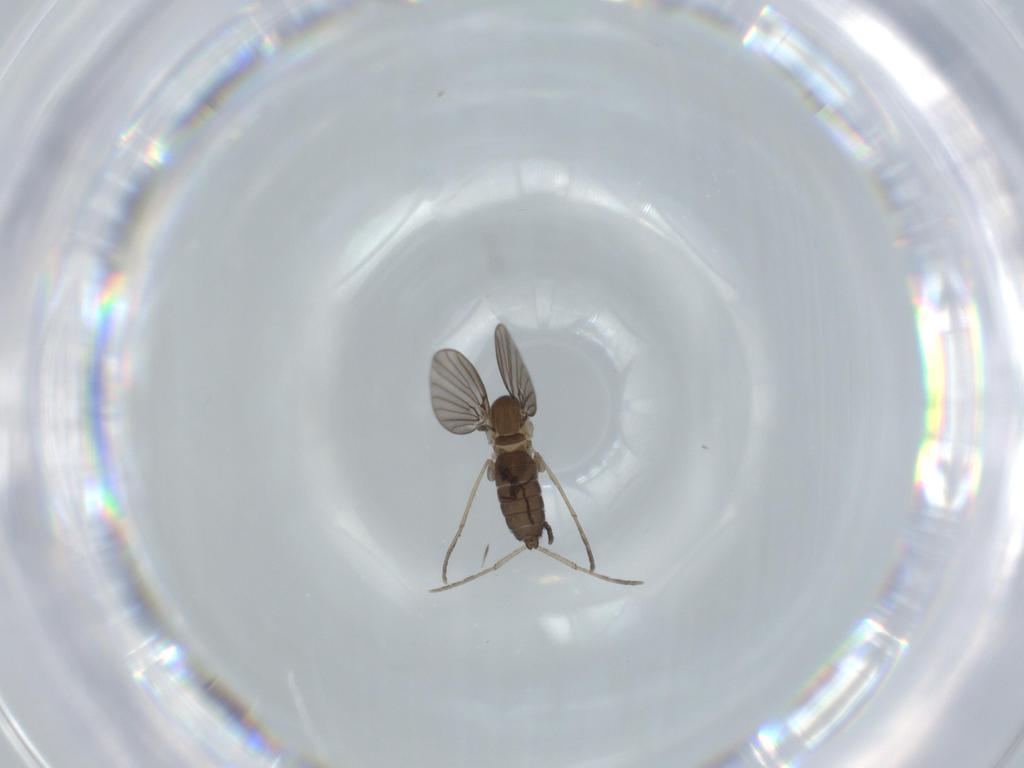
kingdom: Animalia
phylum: Arthropoda
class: Insecta
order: Diptera
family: Psychodidae
